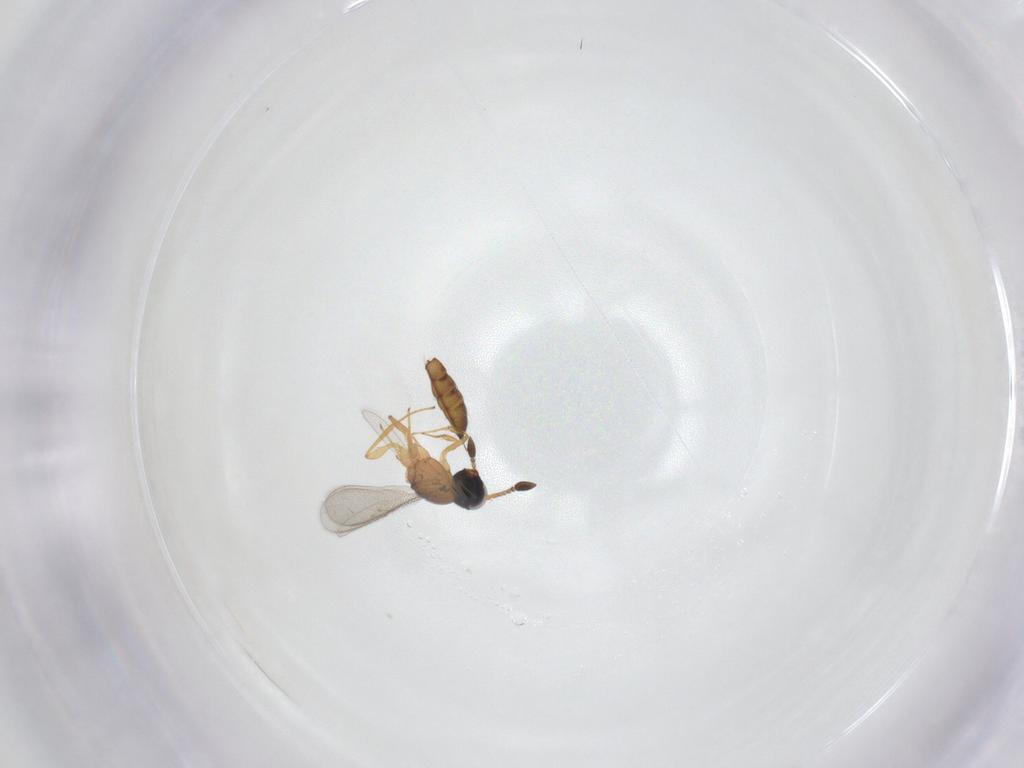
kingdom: Animalia
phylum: Arthropoda
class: Insecta
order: Hymenoptera
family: Scelionidae
